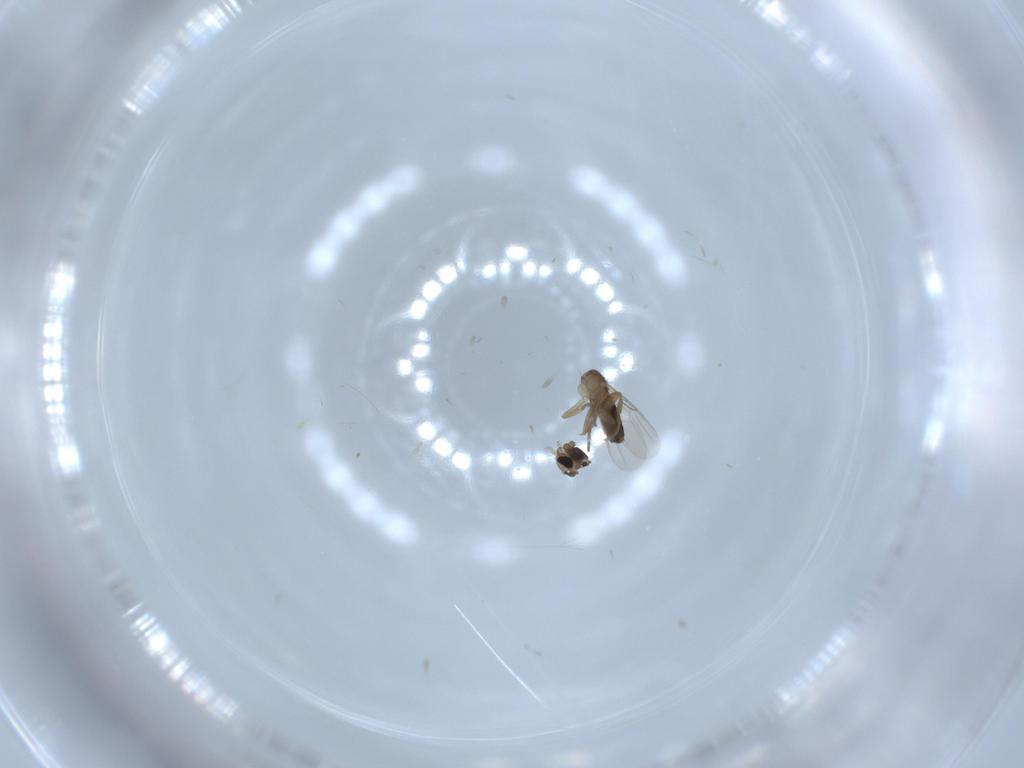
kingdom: Animalia
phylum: Arthropoda
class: Insecta
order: Diptera
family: Phoridae
